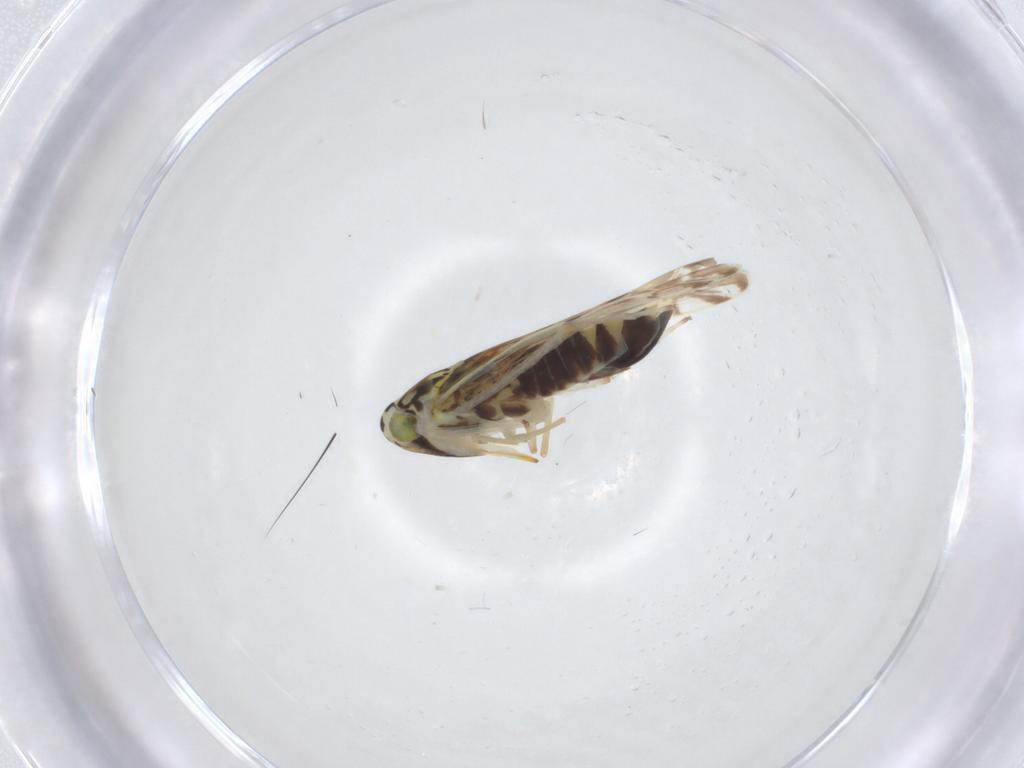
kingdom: Animalia
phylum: Arthropoda
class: Insecta
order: Hemiptera
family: Cicadellidae
